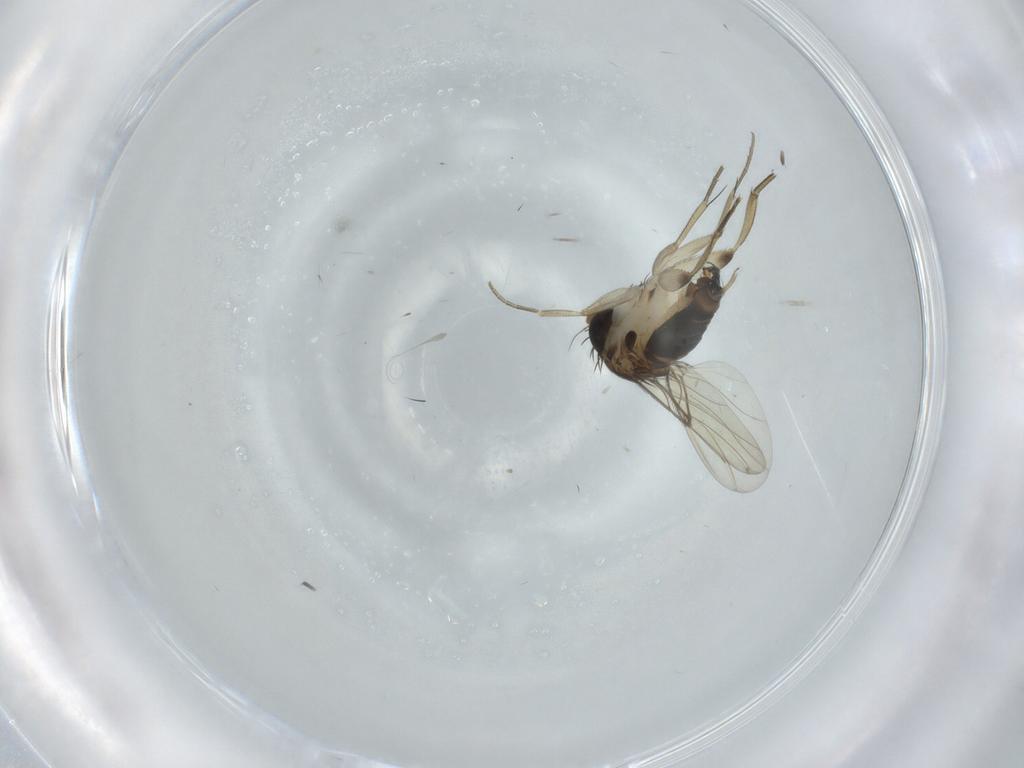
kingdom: Animalia
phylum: Arthropoda
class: Insecta
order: Diptera
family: Phoridae
